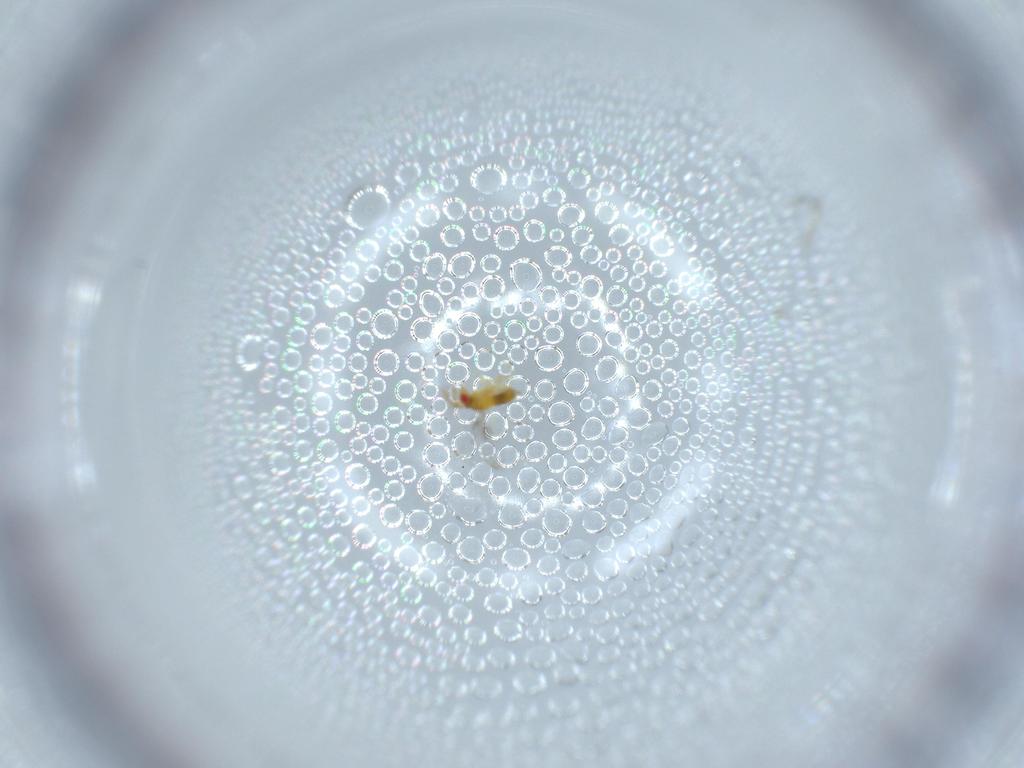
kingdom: Animalia
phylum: Arthropoda
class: Insecta
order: Hymenoptera
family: Trichogrammatidae
